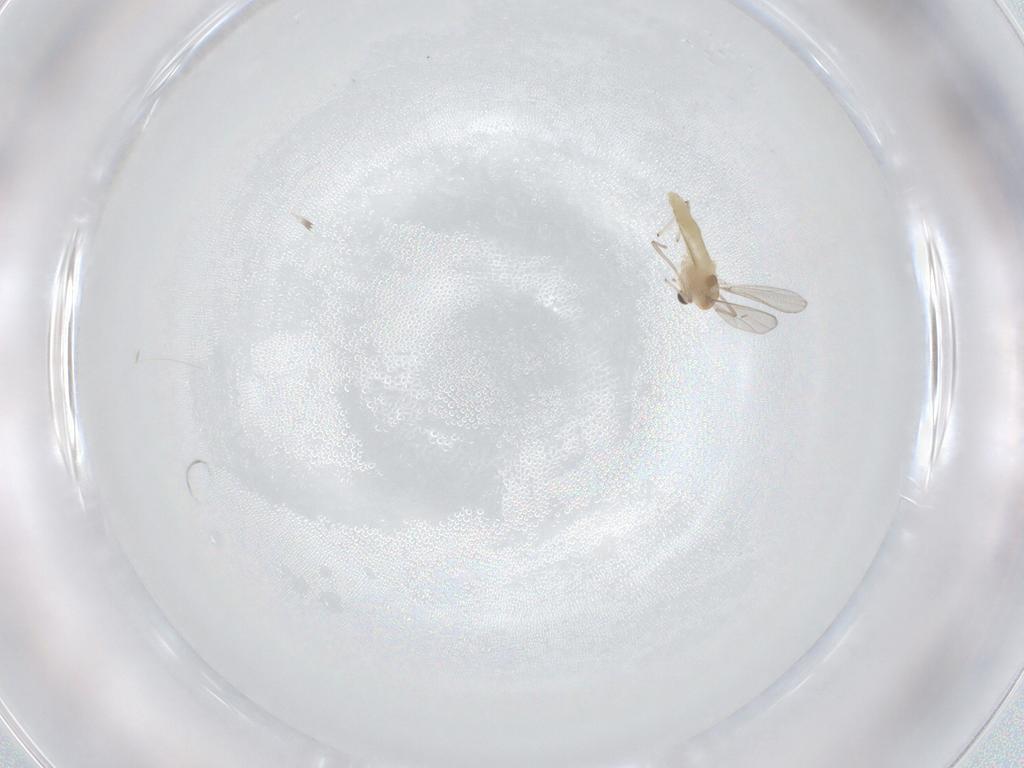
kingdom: Animalia
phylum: Arthropoda
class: Insecta
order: Diptera
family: Chironomidae
